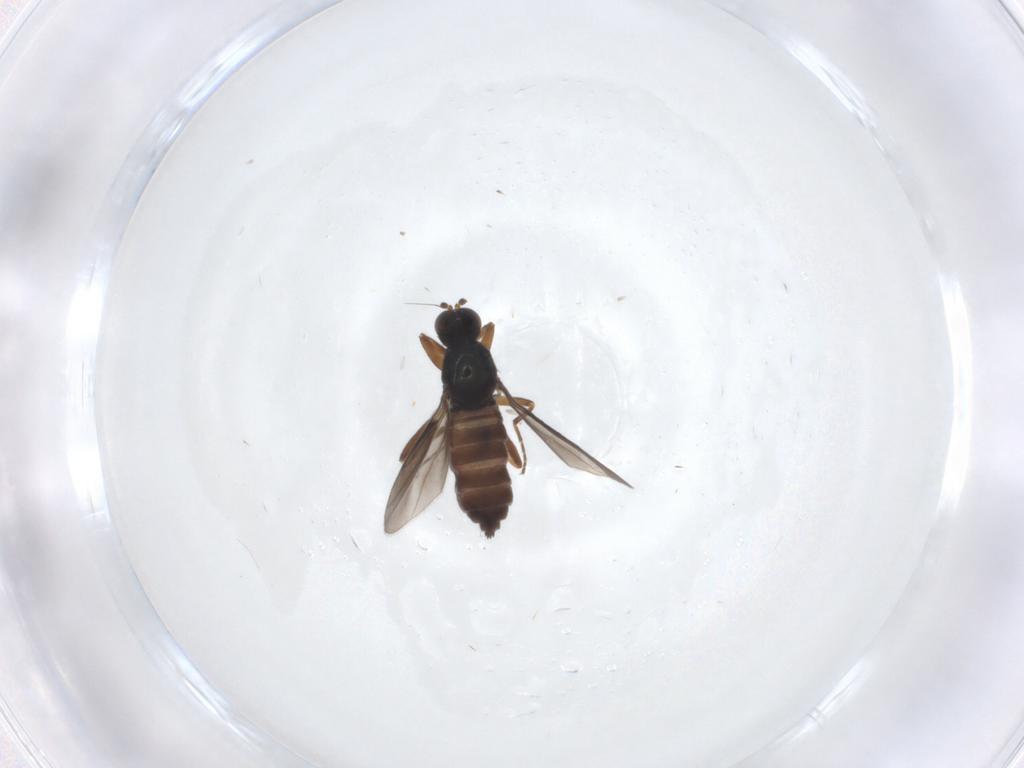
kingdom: Animalia
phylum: Arthropoda
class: Insecta
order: Diptera
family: Hybotidae
